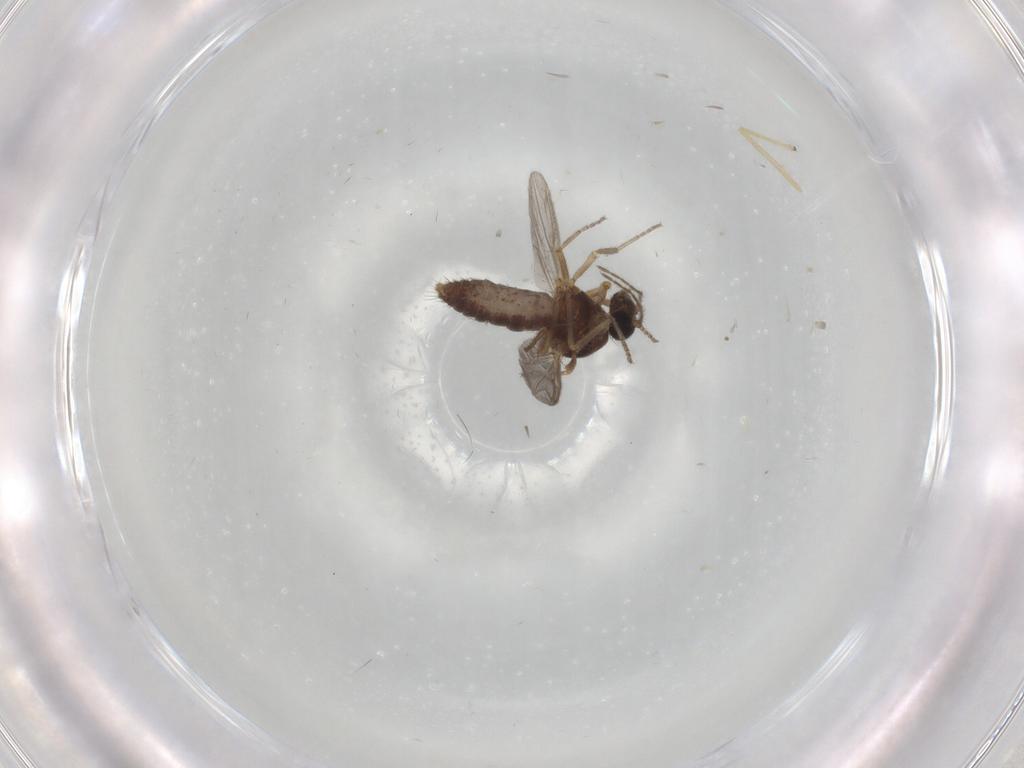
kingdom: Animalia
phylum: Arthropoda
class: Insecta
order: Diptera
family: Ceratopogonidae
